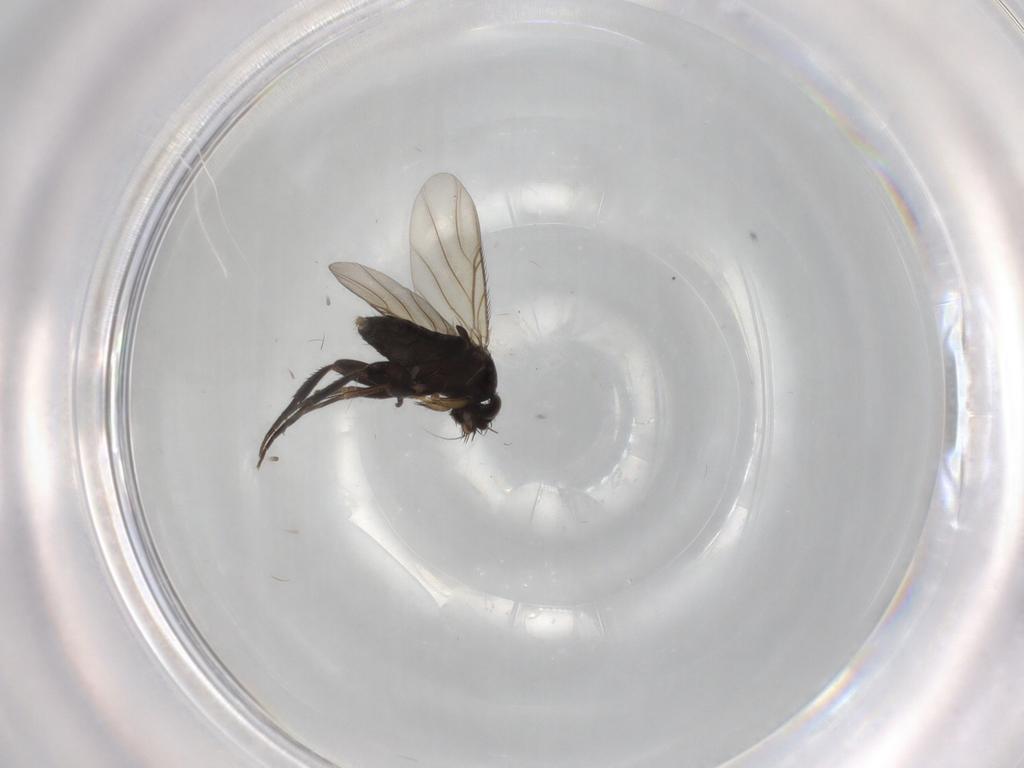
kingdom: Animalia
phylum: Arthropoda
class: Insecta
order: Diptera
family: Phoridae
